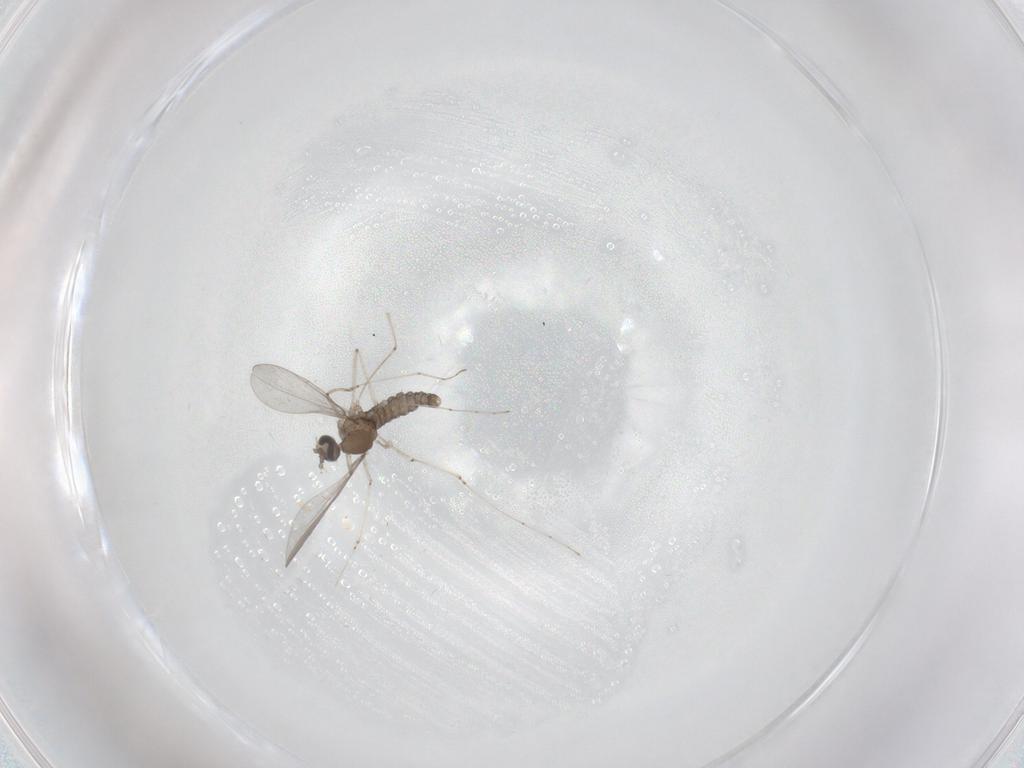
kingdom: Animalia
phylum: Arthropoda
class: Insecta
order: Diptera
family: Cecidomyiidae
